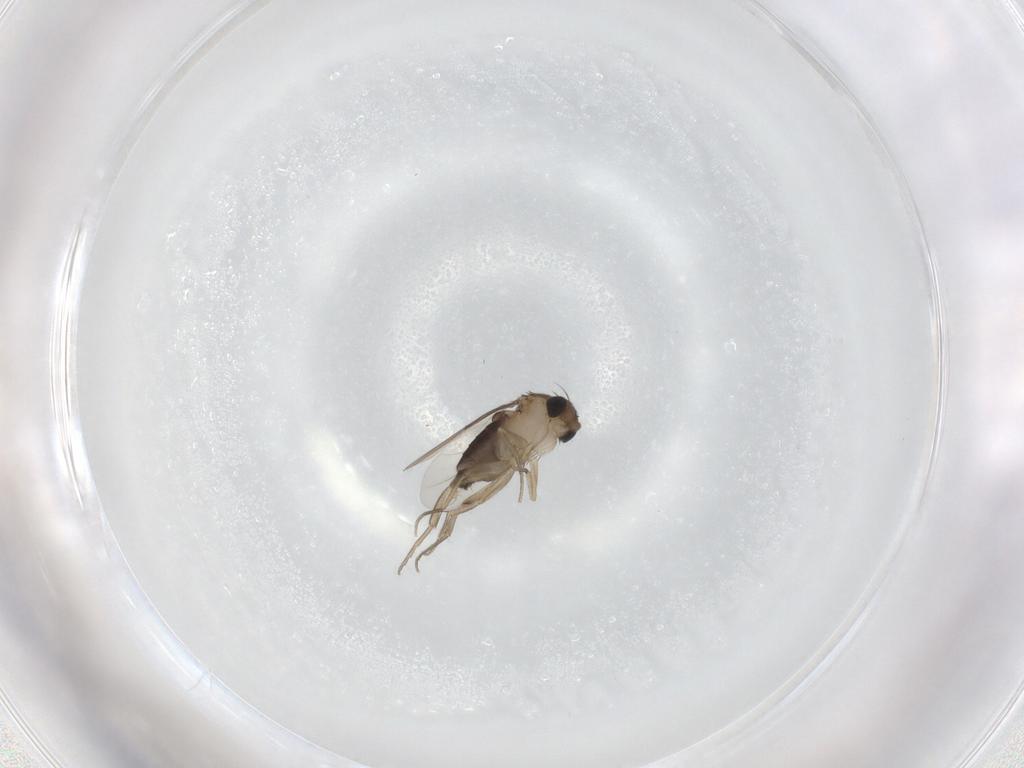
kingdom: Animalia
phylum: Arthropoda
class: Insecta
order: Diptera
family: Phoridae
